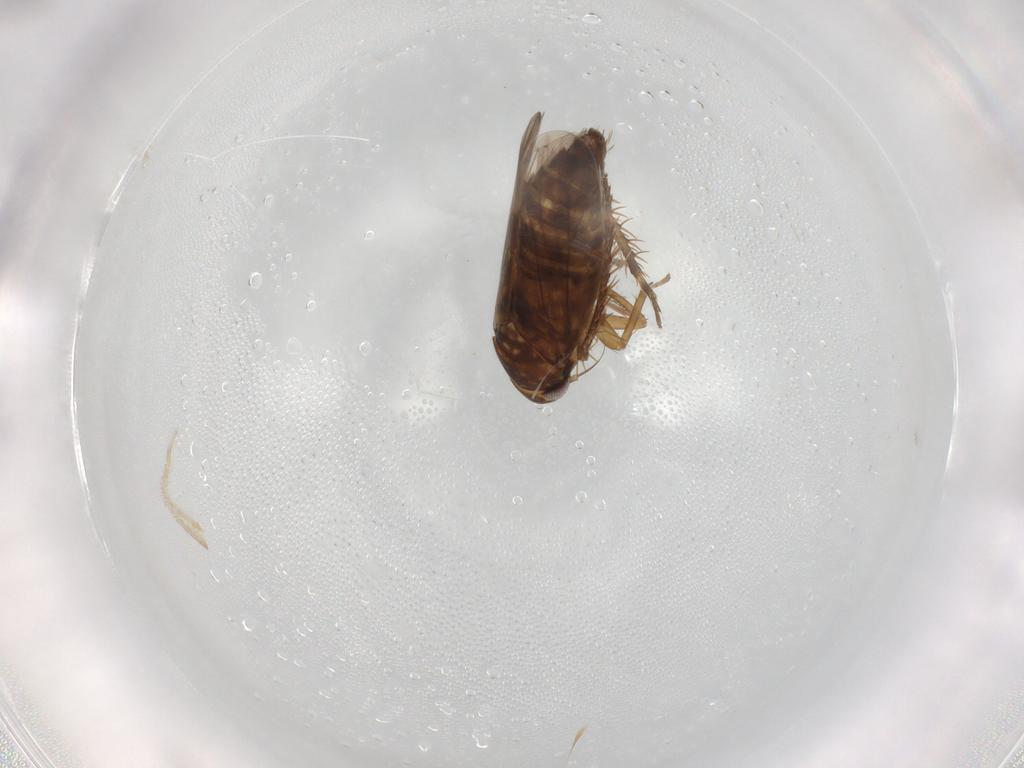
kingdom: Animalia
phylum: Arthropoda
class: Insecta
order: Hemiptera
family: Cicadellidae
